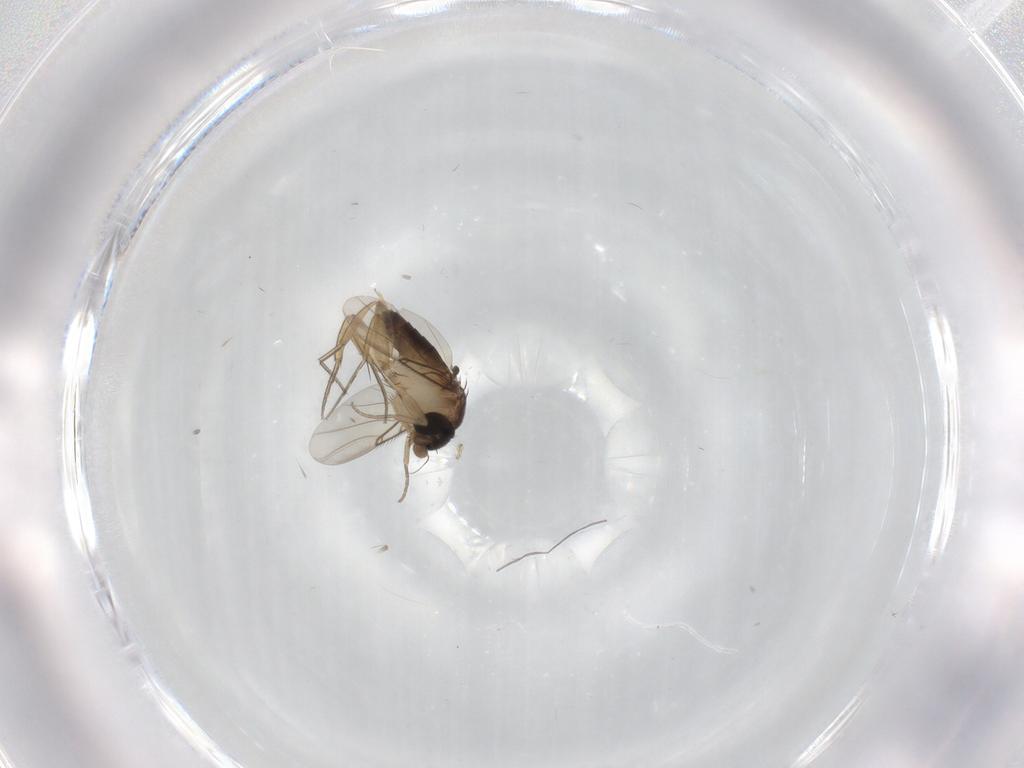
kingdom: Animalia
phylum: Arthropoda
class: Insecta
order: Diptera
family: Phoridae
